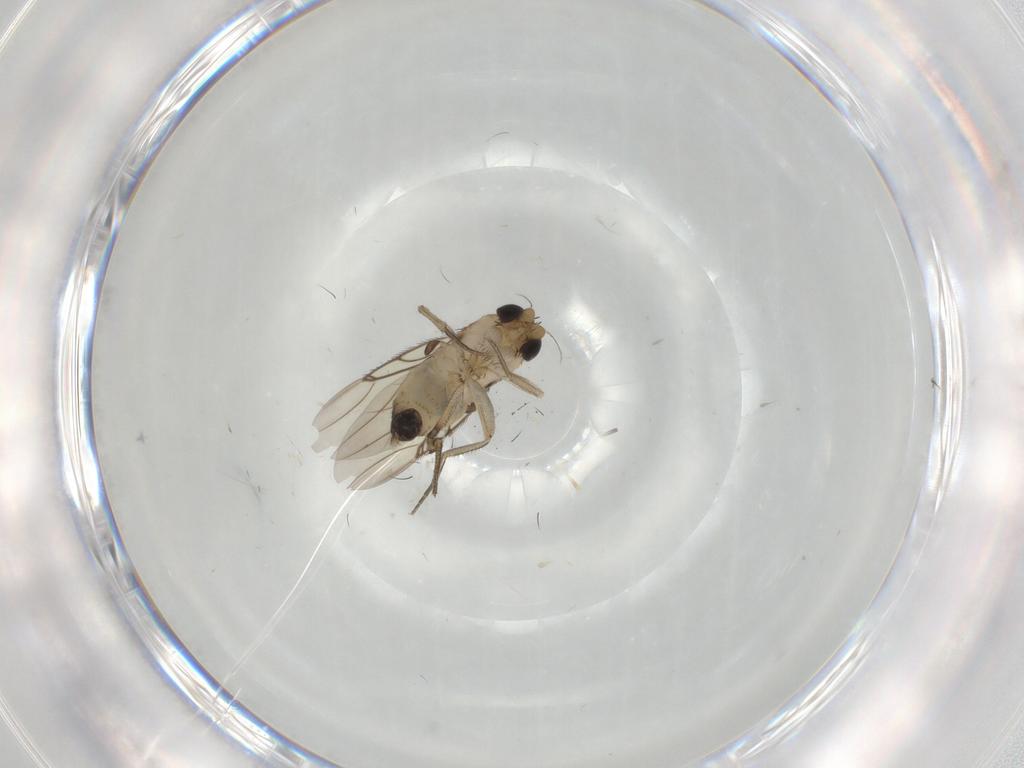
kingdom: Animalia
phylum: Arthropoda
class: Insecta
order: Diptera
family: Phoridae
